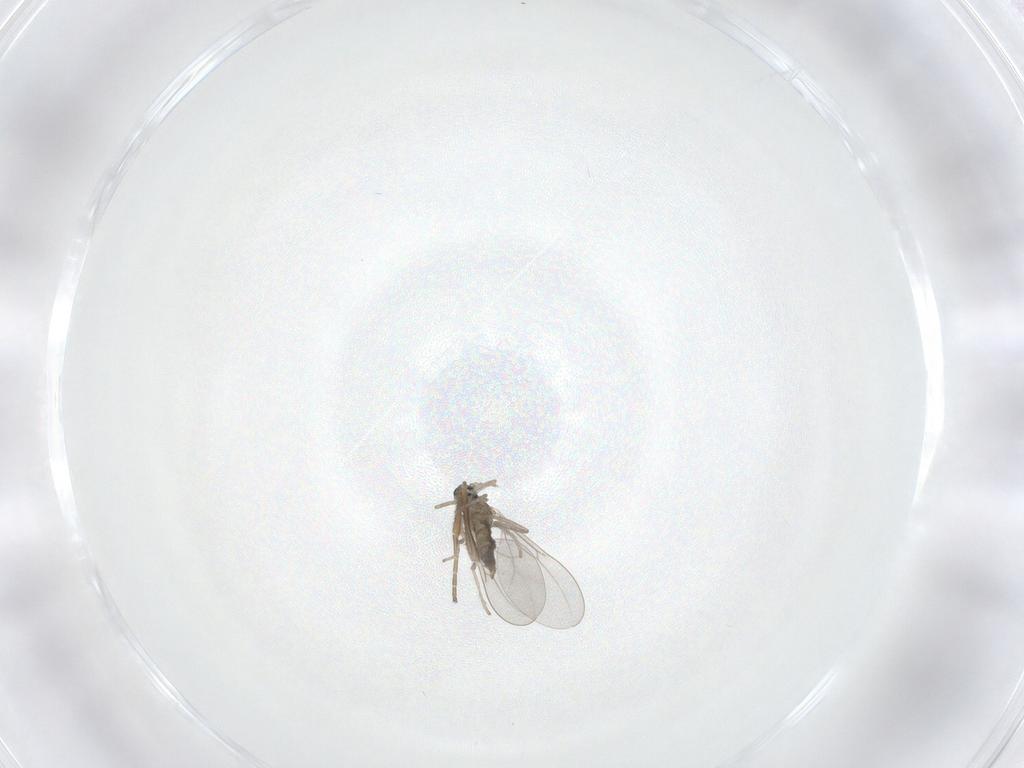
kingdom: Animalia
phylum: Arthropoda
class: Insecta
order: Diptera
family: Cecidomyiidae
